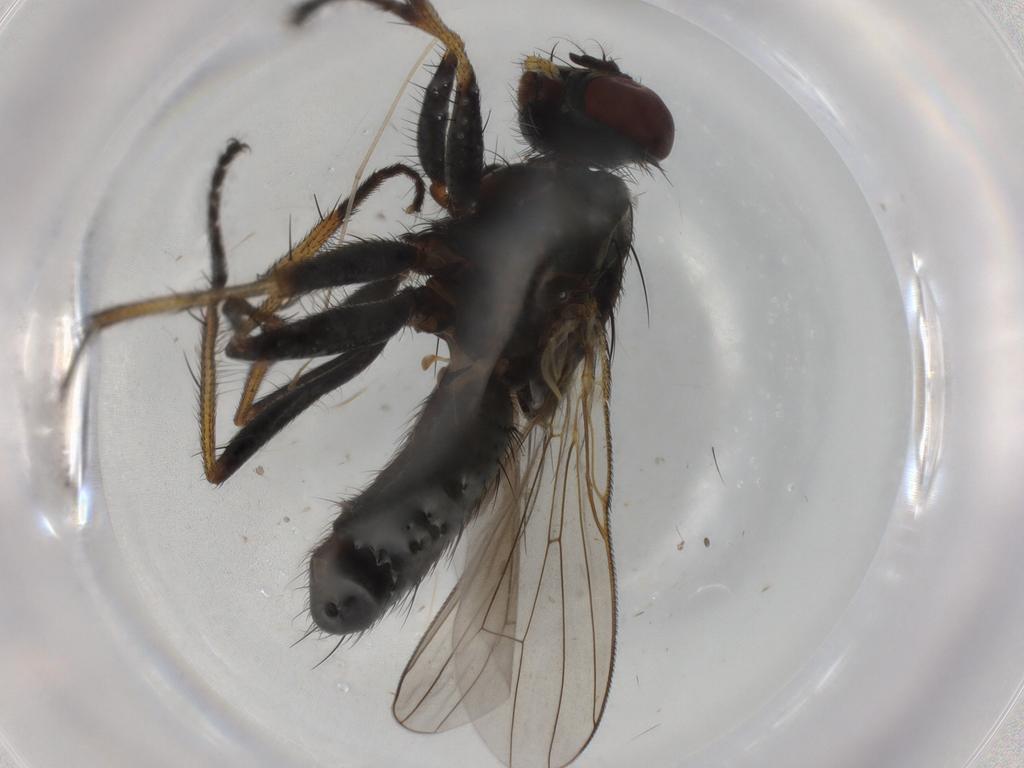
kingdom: Animalia
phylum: Arthropoda
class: Insecta
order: Diptera
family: Muscidae
